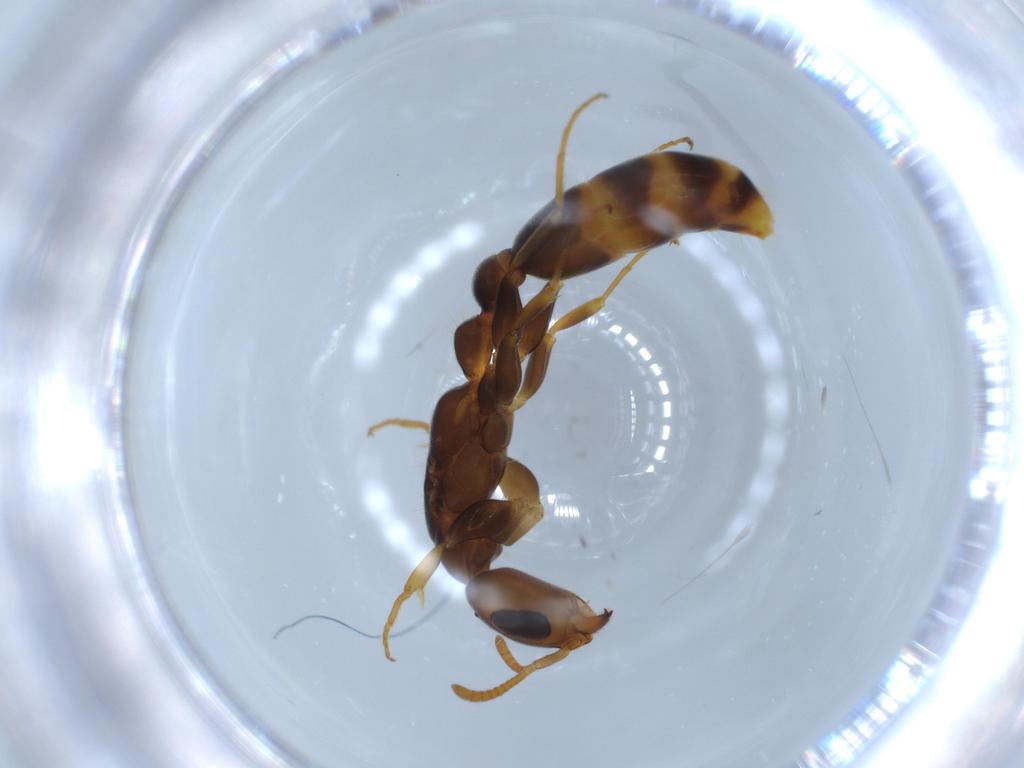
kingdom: Animalia
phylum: Arthropoda
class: Insecta
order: Hymenoptera
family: Formicidae
